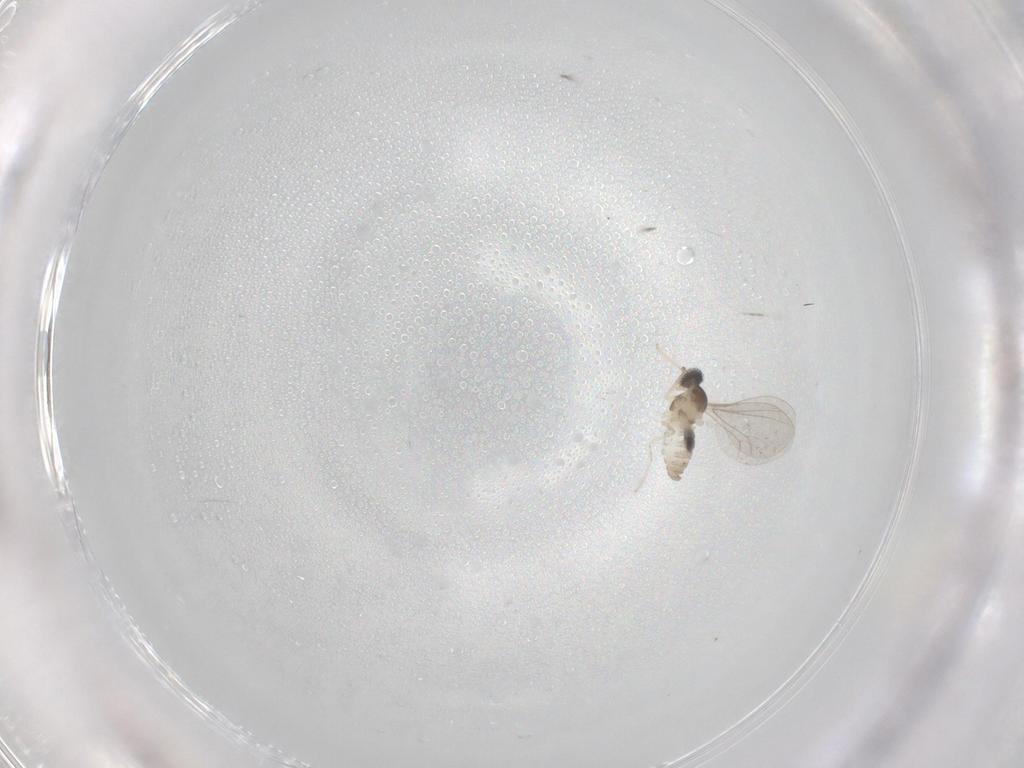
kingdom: Animalia
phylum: Arthropoda
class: Insecta
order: Diptera
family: Cecidomyiidae
